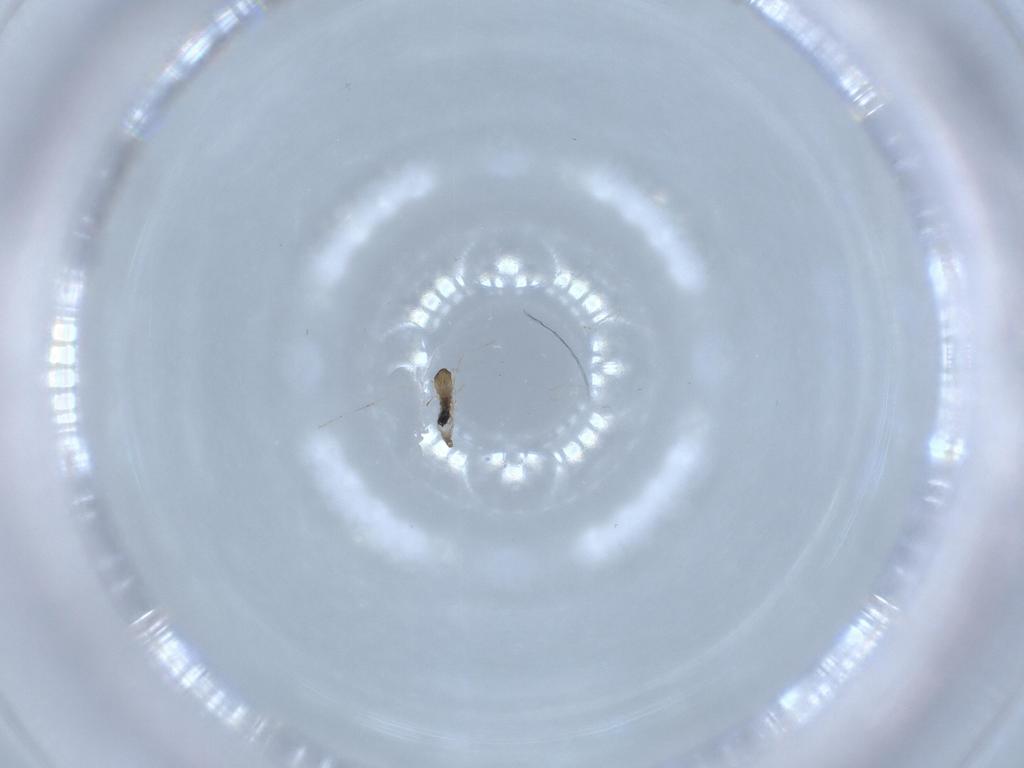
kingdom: Animalia
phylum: Arthropoda
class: Insecta
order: Diptera
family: Cecidomyiidae
